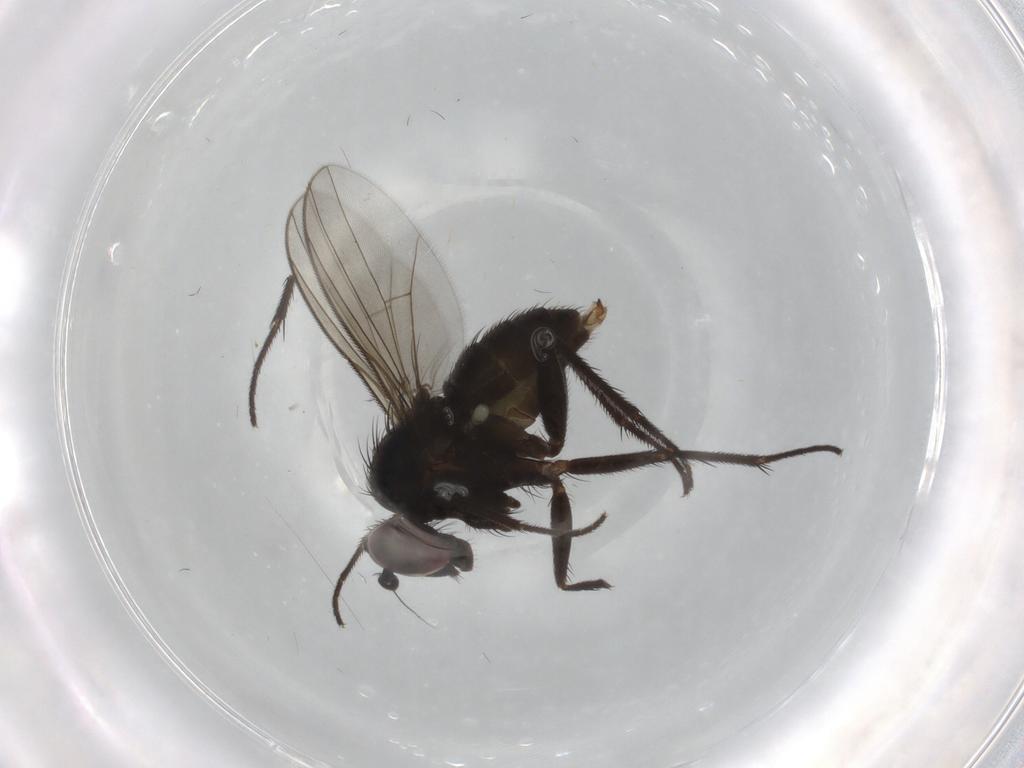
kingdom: Animalia
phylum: Arthropoda
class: Insecta
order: Diptera
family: Dolichopodidae
